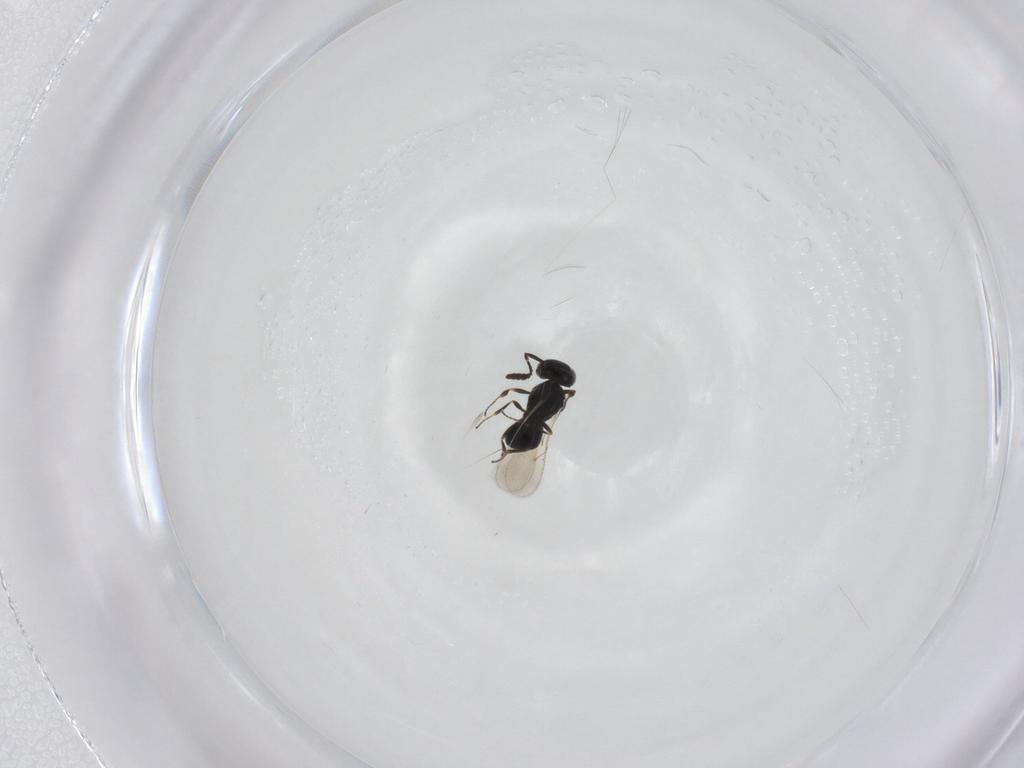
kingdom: Animalia
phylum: Arthropoda
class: Insecta
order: Hymenoptera
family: Scelionidae
